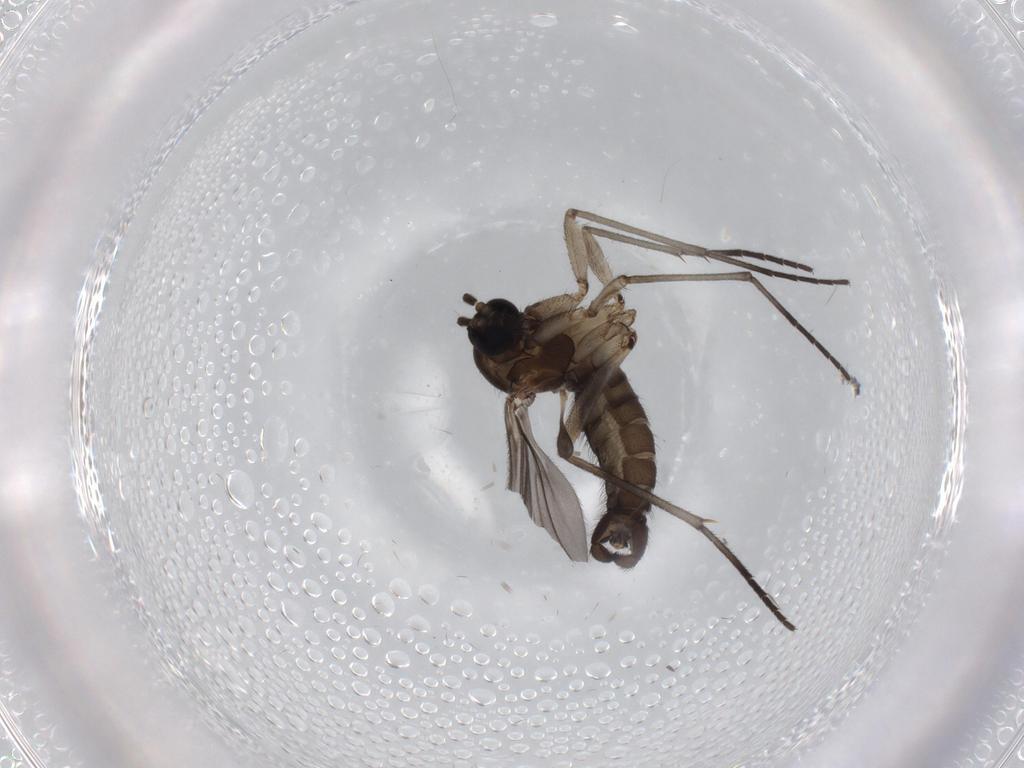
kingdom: Animalia
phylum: Arthropoda
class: Insecta
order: Diptera
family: Sciaridae
